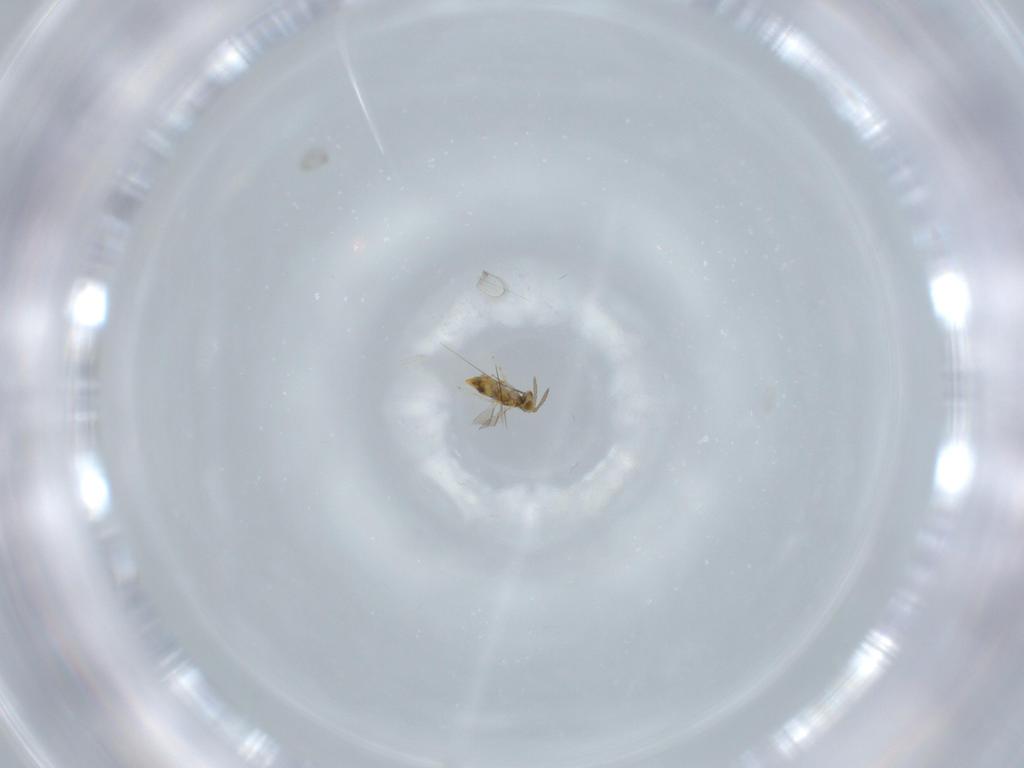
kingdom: Animalia
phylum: Arthropoda
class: Insecta
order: Hymenoptera
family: Aphelinidae
